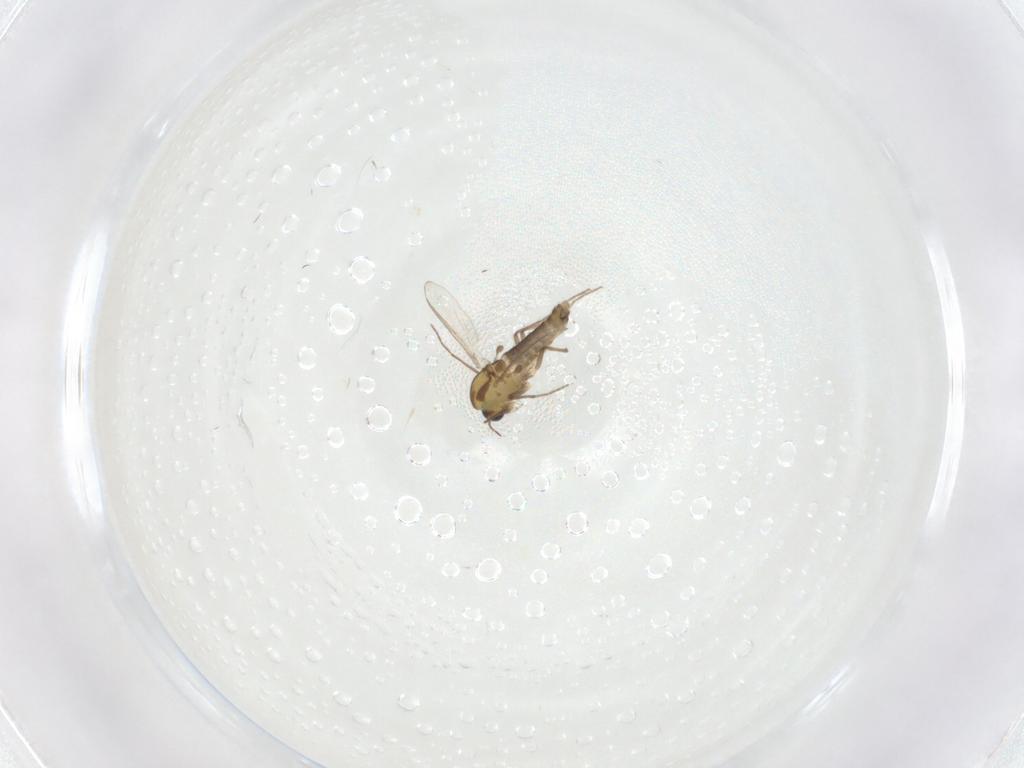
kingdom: Animalia
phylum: Arthropoda
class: Insecta
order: Diptera
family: Chironomidae
